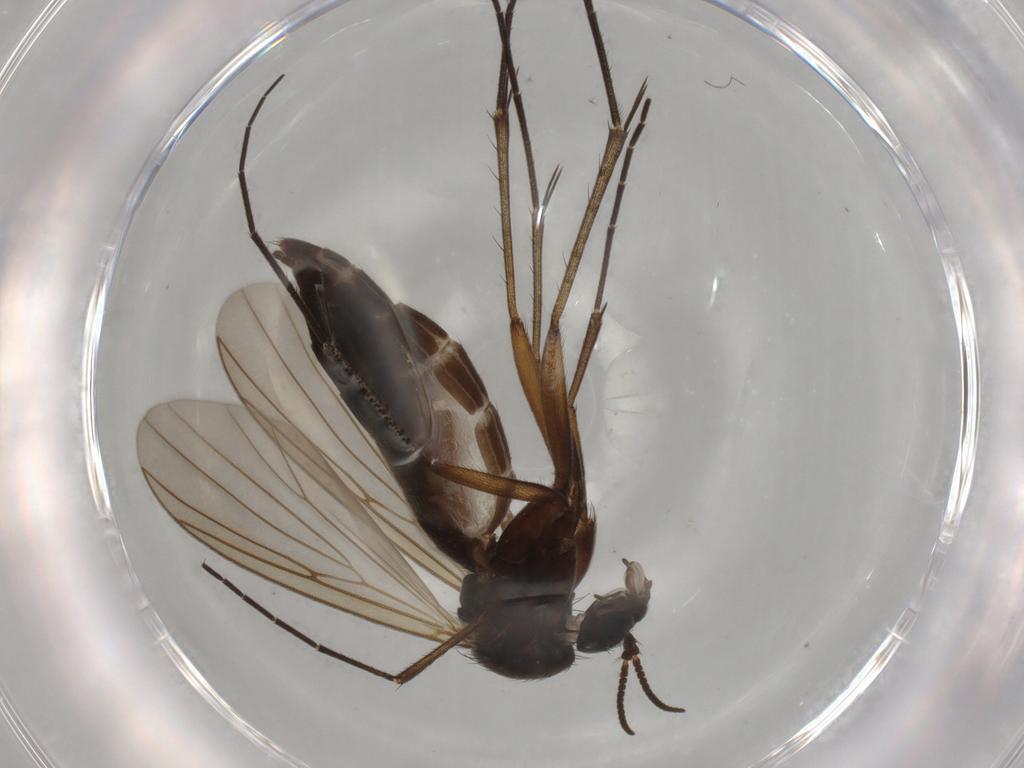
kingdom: Animalia
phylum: Arthropoda
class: Insecta
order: Diptera
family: Mycetophilidae
